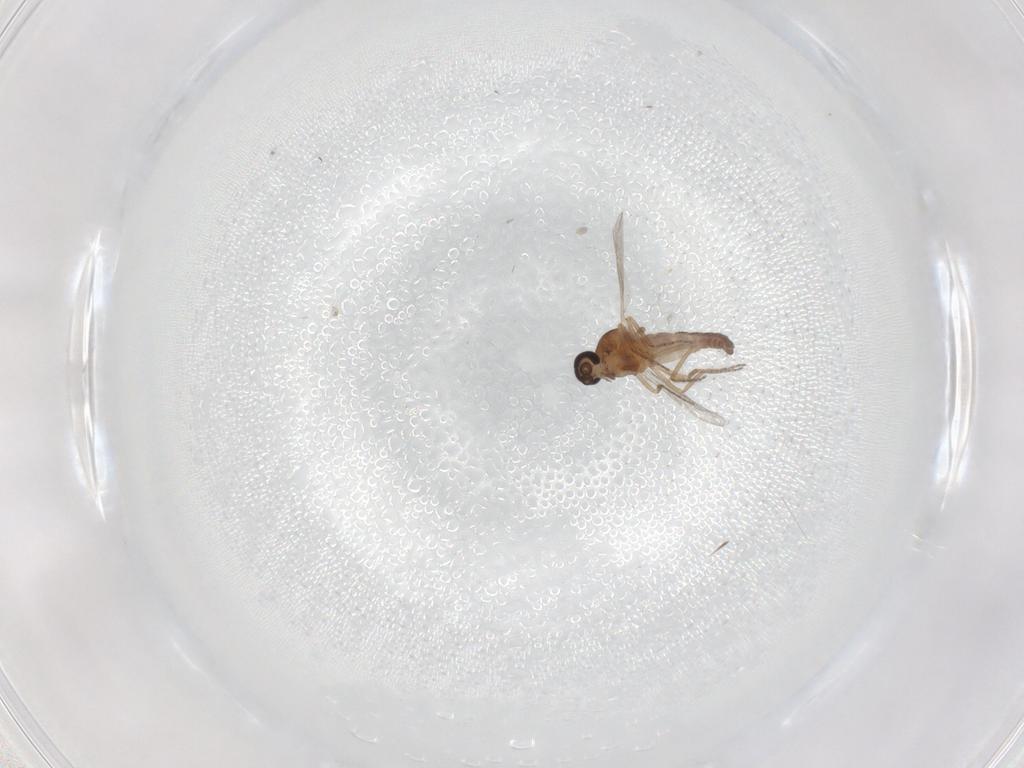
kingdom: Animalia
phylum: Arthropoda
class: Insecta
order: Diptera
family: Ceratopogonidae
